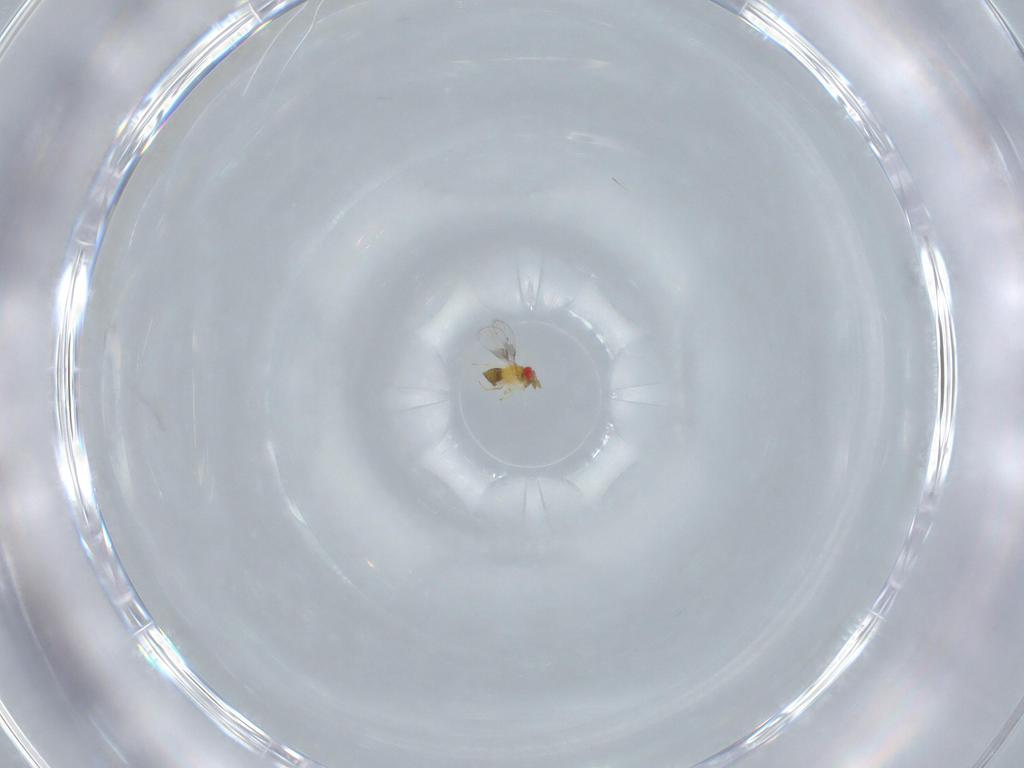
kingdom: Animalia
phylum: Arthropoda
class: Insecta
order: Hymenoptera
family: Trichogrammatidae
